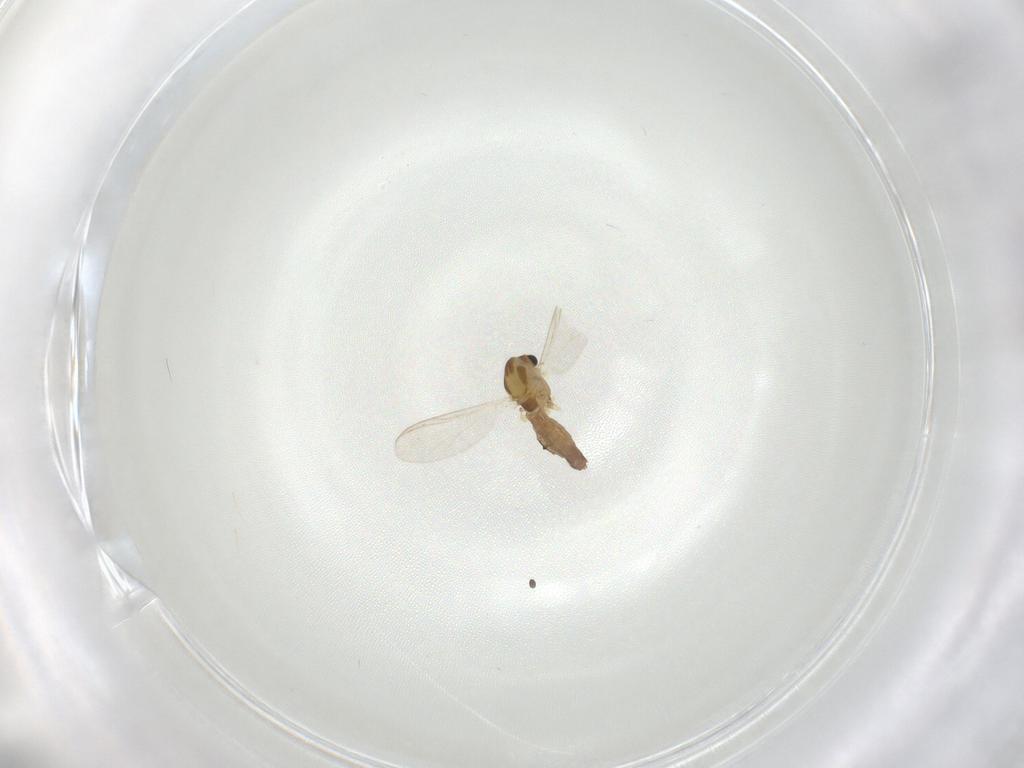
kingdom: Animalia
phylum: Arthropoda
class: Insecta
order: Diptera
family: Chironomidae
